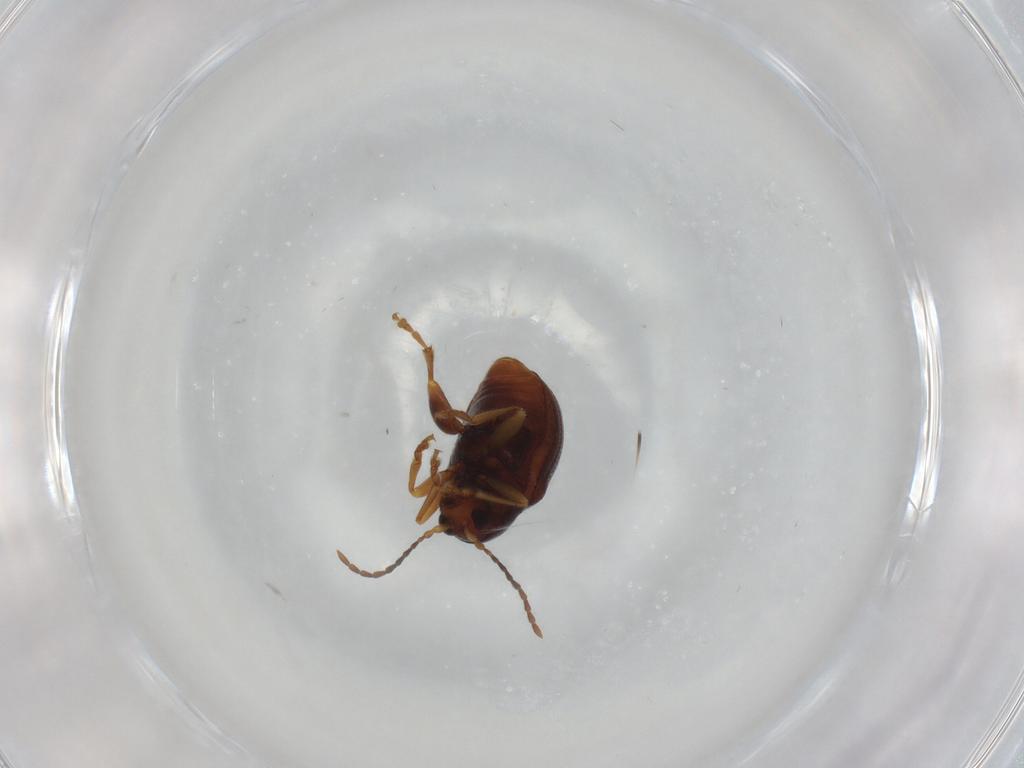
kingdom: Animalia
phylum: Arthropoda
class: Insecta
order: Coleoptera
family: Chrysomelidae
